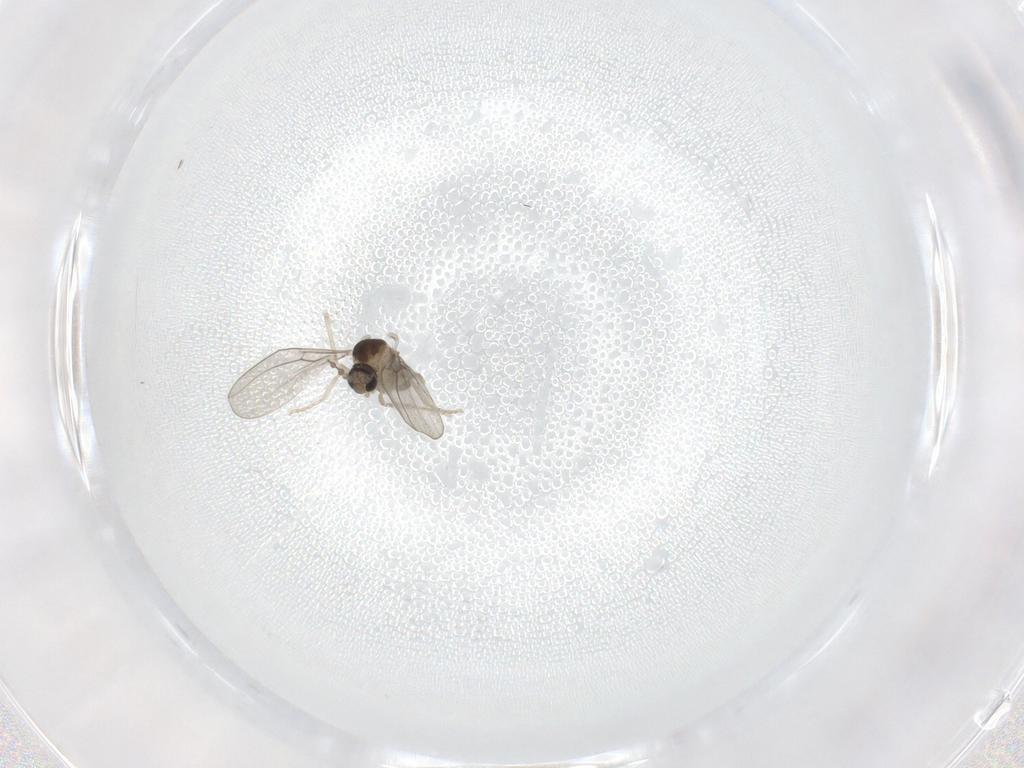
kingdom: Animalia
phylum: Arthropoda
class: Insecta
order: Diptera
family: Cecidomyiidae
